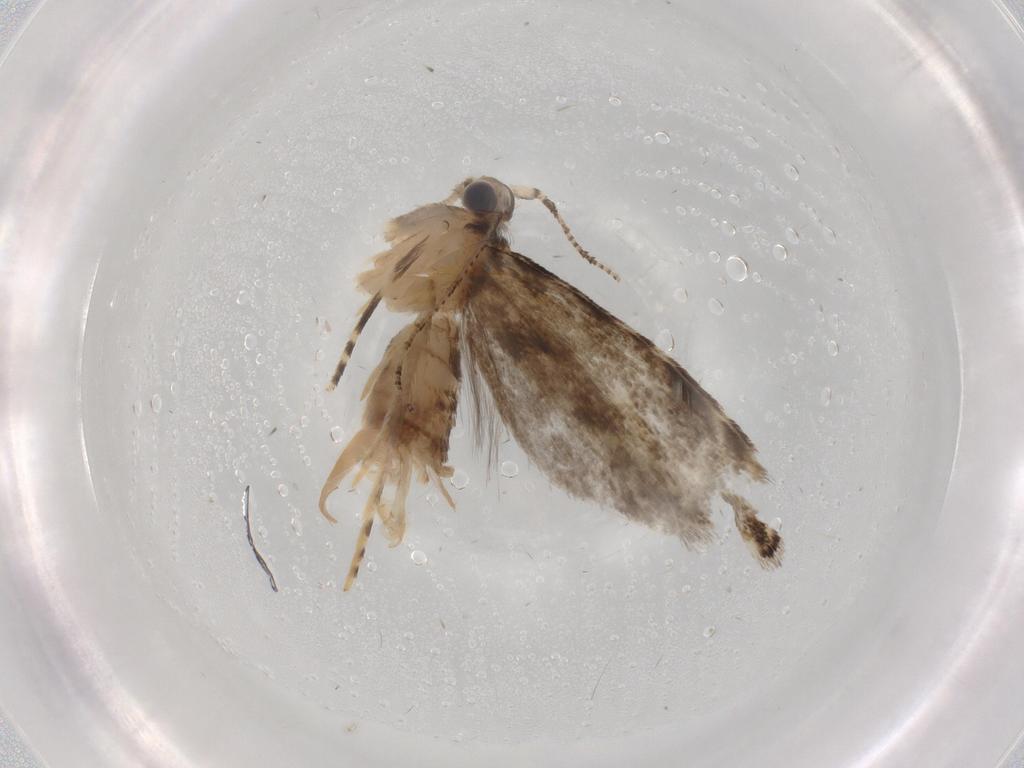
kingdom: Animalia
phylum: Arthropoda
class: Insecta
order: Lepidoptera
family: Tineidae
